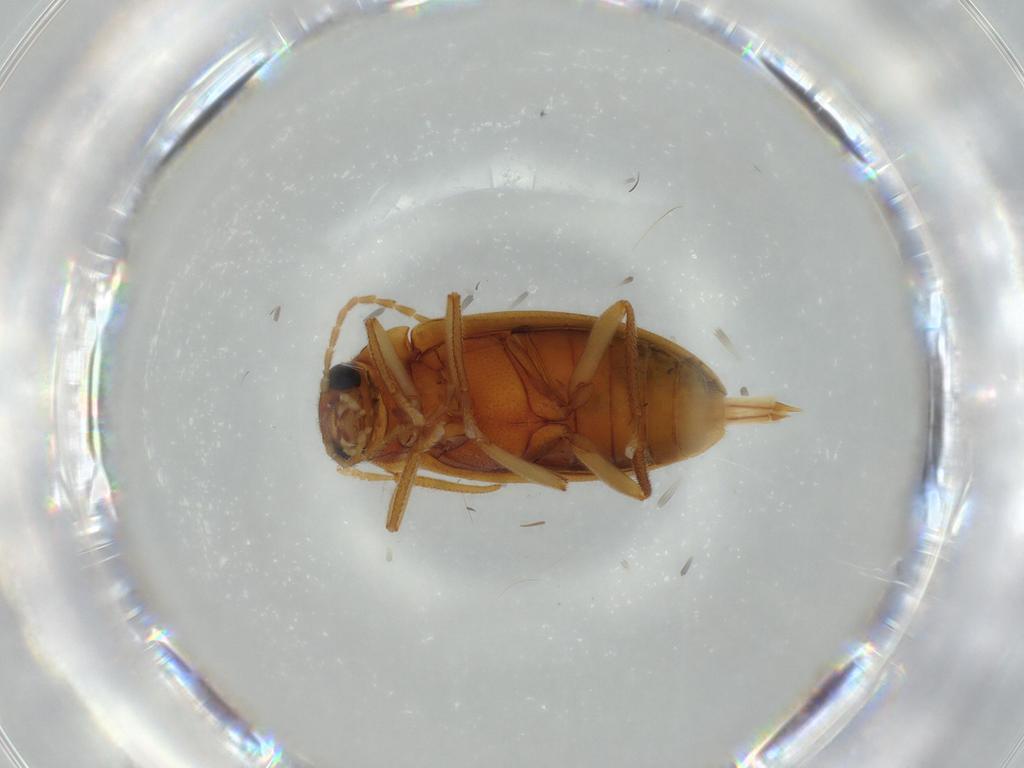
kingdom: Animalia
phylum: Arthropoda
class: Insecta
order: Coleoptera
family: Ptilodactylidae
